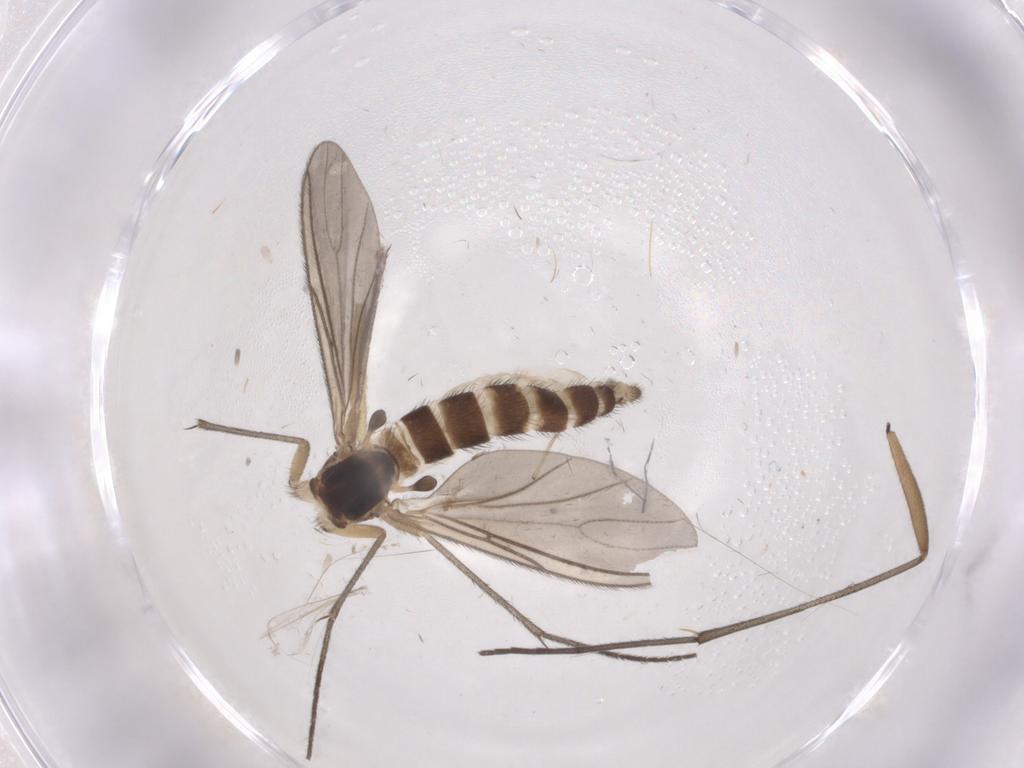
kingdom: Animalia
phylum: Arthropoda
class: Insecta
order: Diptera
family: Sciaridae
